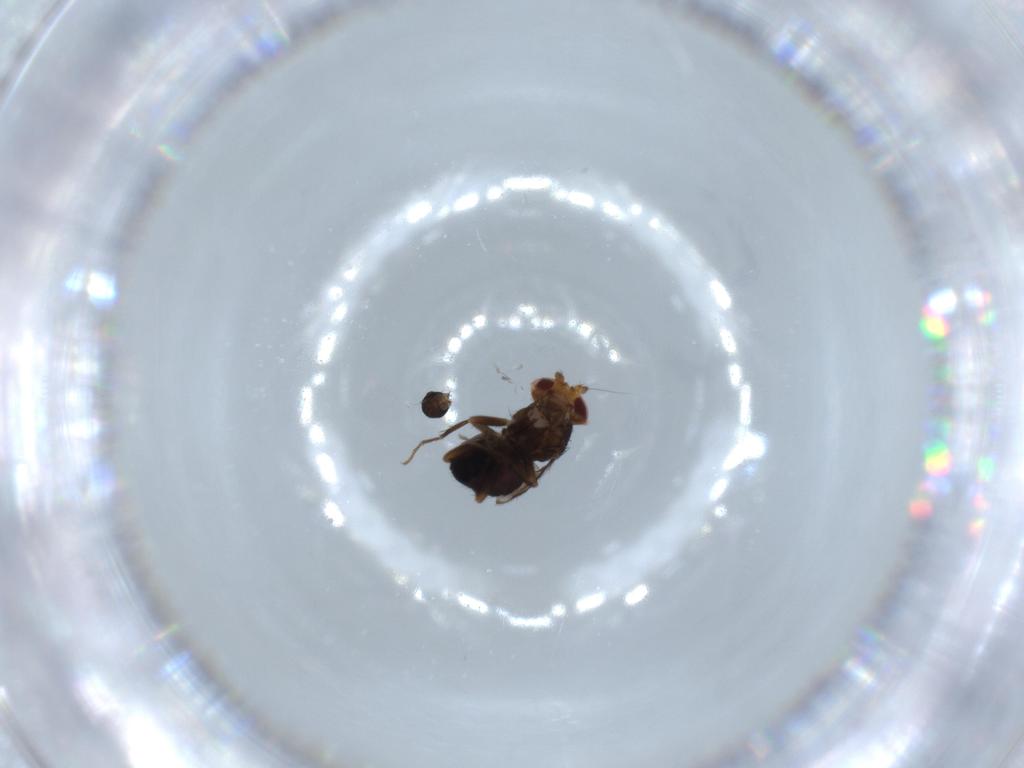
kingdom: Animalia
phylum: Arthropoda
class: Insecta
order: Diptera
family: Sphaeroceridae
